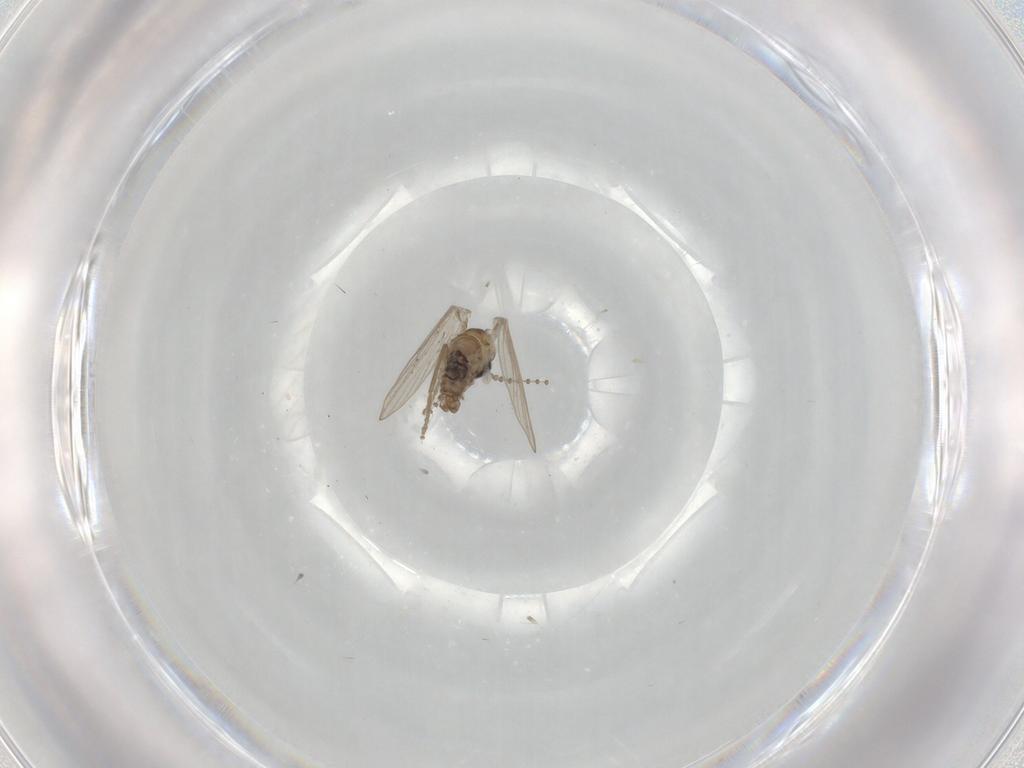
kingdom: Animalia
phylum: Arthropoda
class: Insecta
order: Diptera
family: Psychodidae
